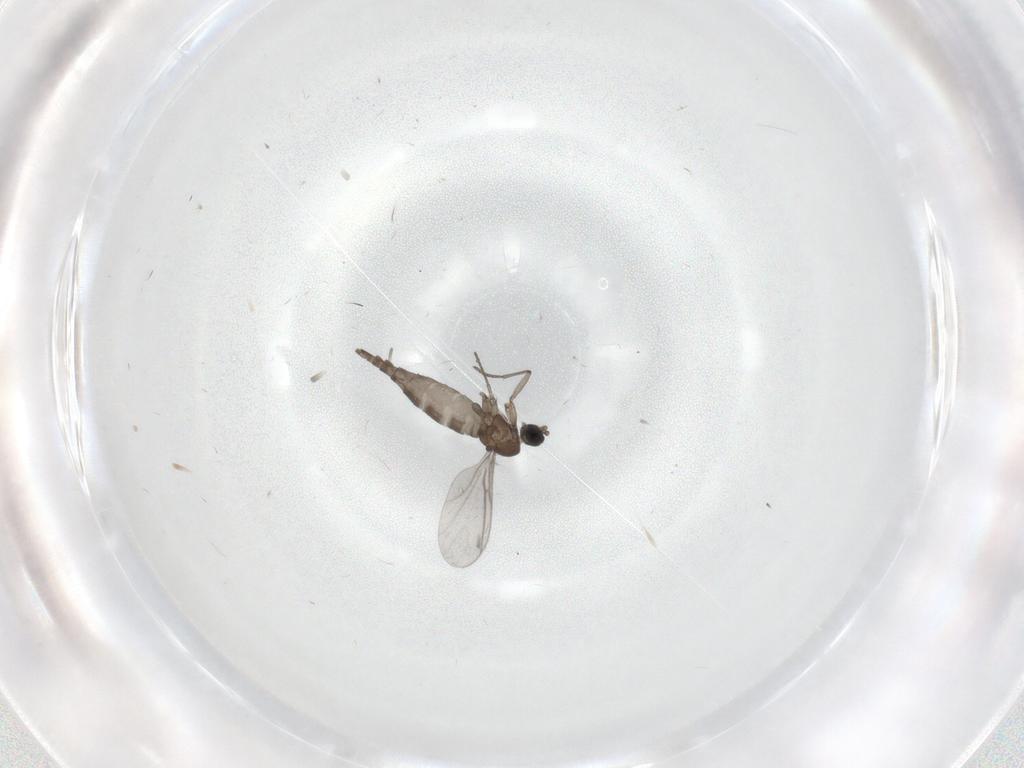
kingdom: Animalia
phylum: Arthropoda
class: Insecta
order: Diptera
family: Sciaridae
